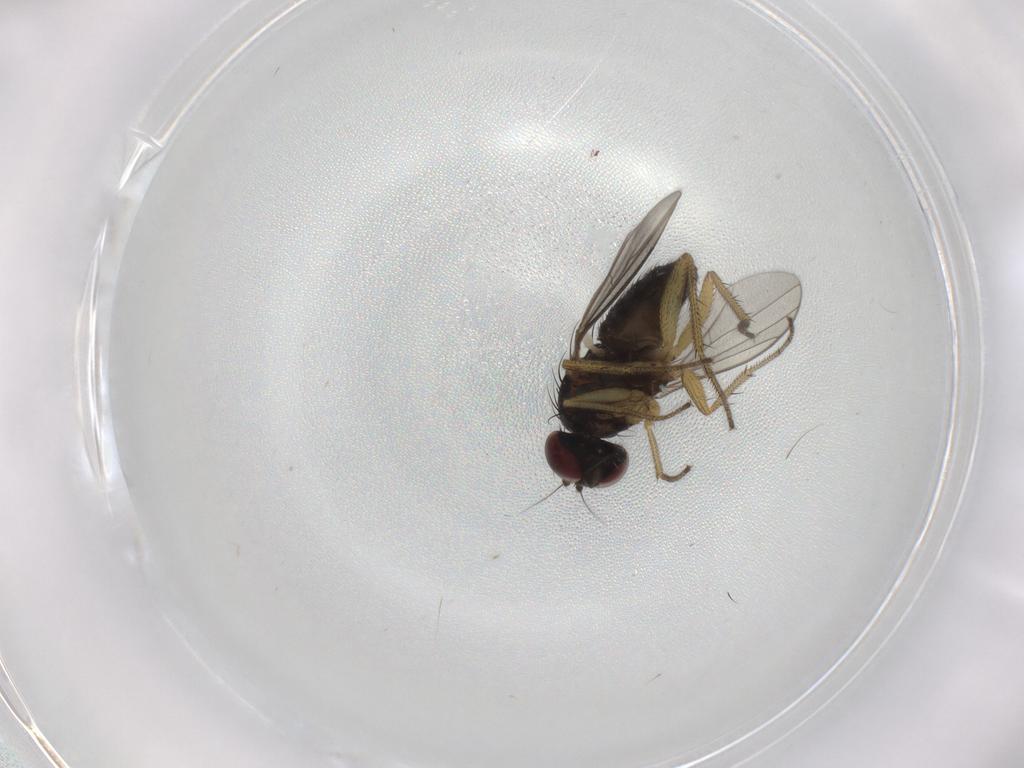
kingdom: Animalia
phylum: Arthropoda
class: Insecta
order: Diptera
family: Dolichopodidae
